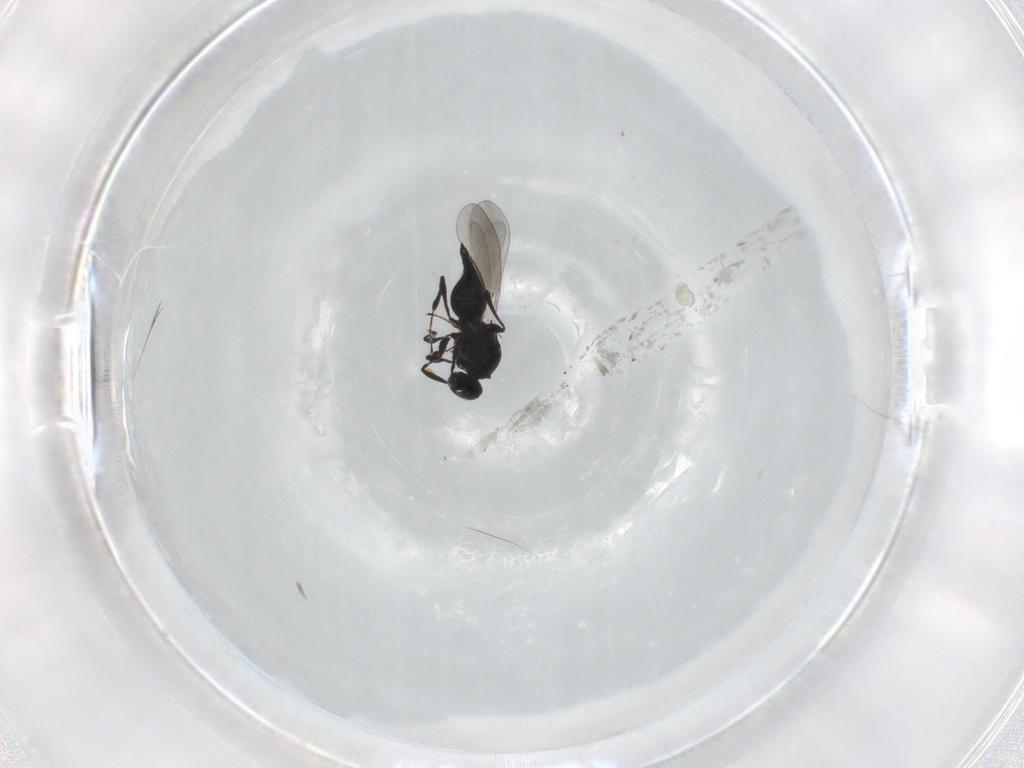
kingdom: Animalia
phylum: Arthropoda
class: Insecta
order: Hymenoptera
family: Platygastridae
